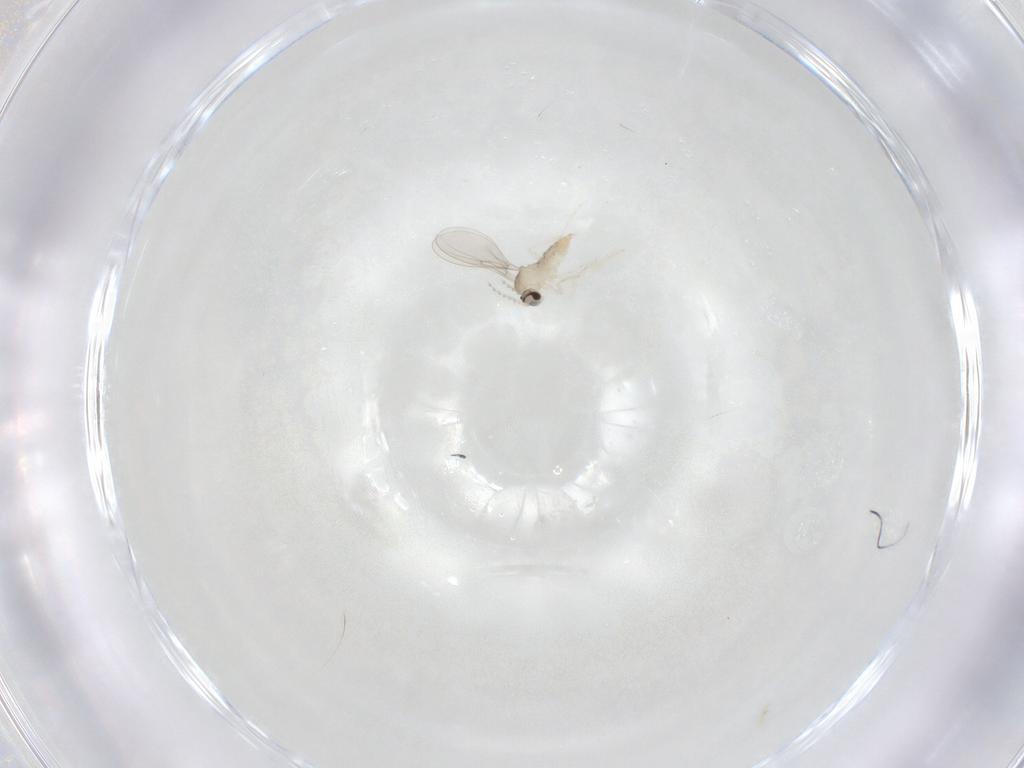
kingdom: Animalia
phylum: Arthropoda
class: Insecta
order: Diptera
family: Cecidomyiidae
